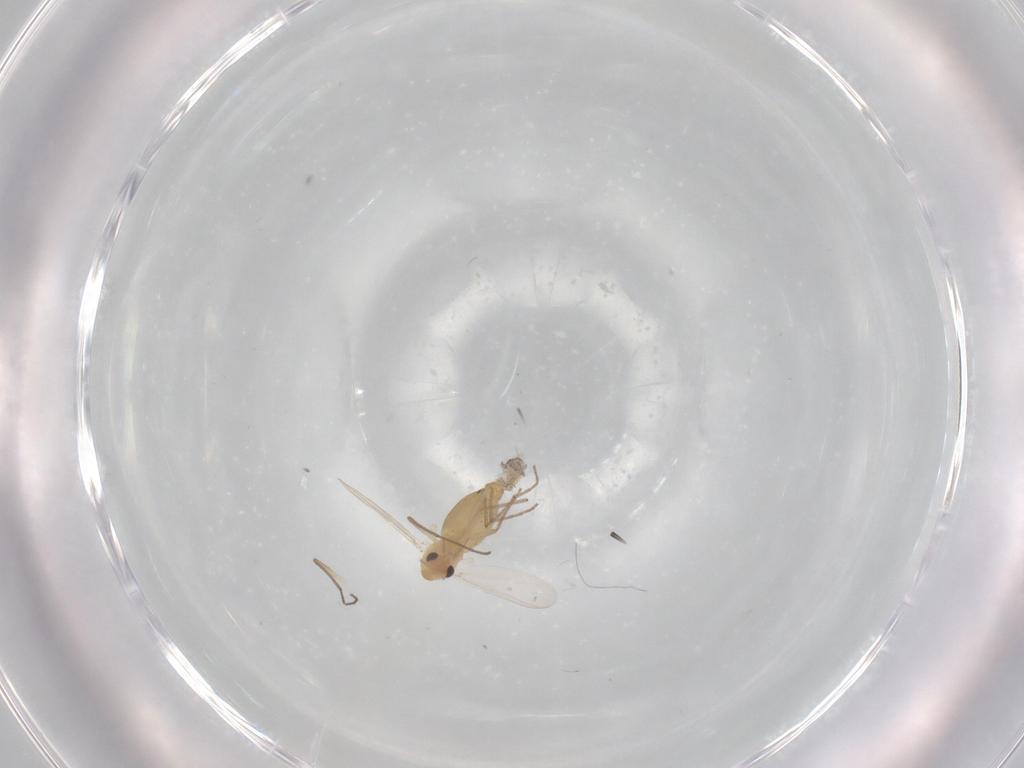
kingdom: Animalia
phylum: Arthropoda
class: Insecta
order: Diptera
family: Chironomidae
